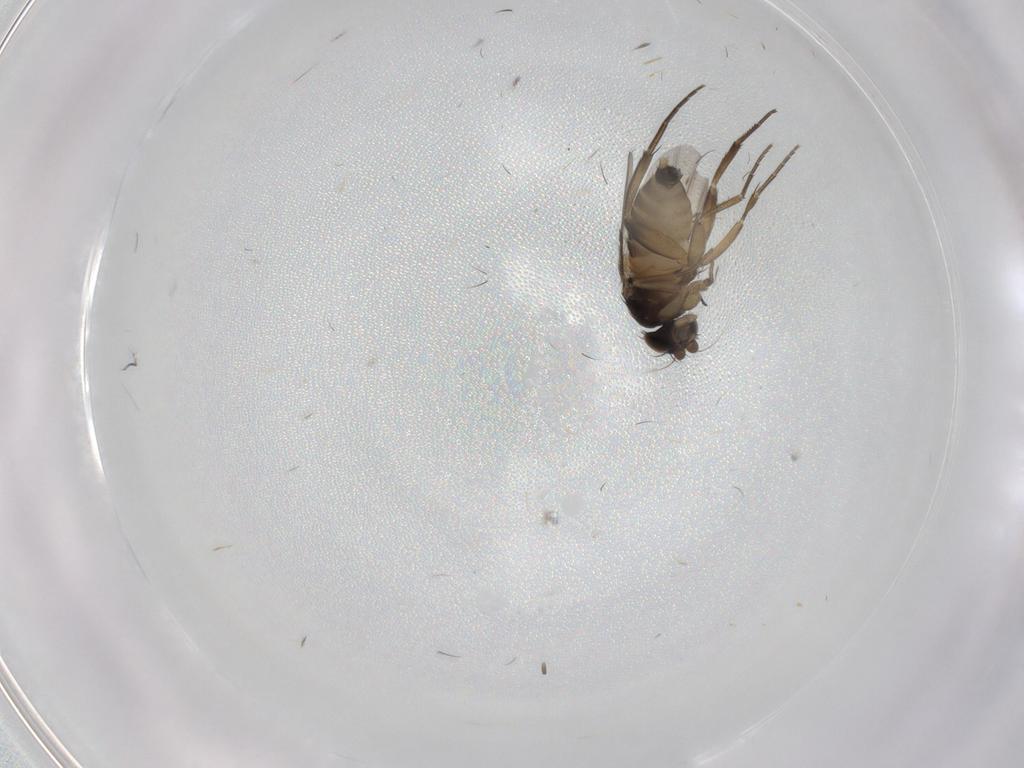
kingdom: Animalia
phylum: Arthropoda
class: Insecta
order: Diptera
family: Phoridae
